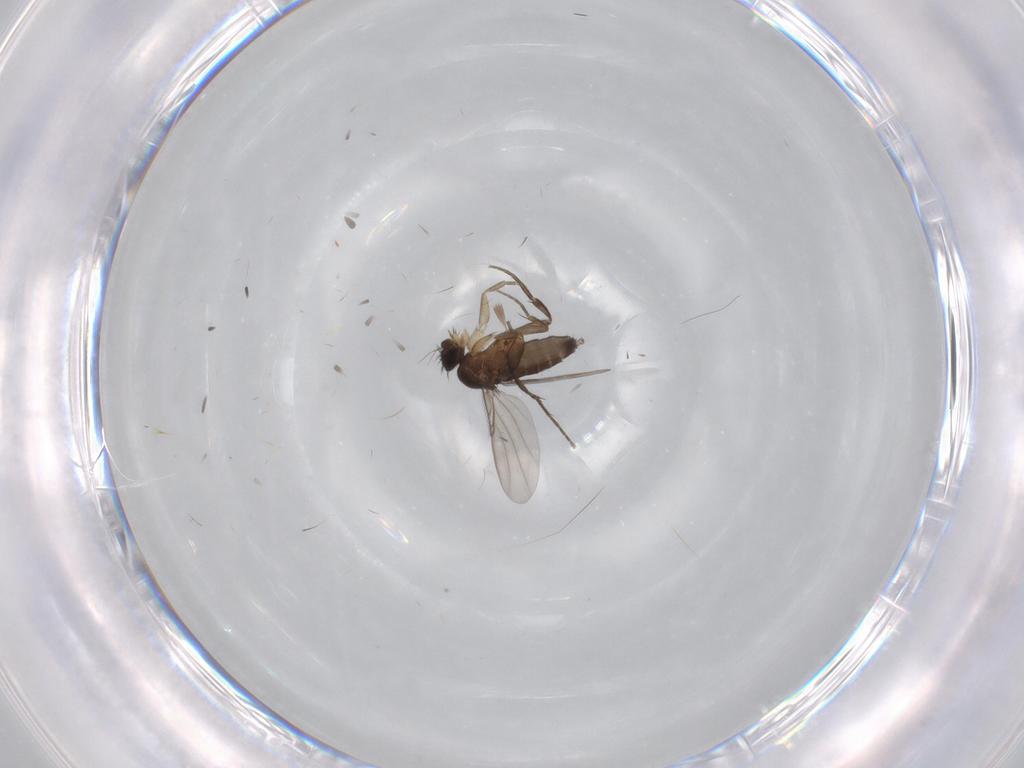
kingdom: Animalia
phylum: Arthropoda
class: Insecta
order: Diptera
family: Phoridae
